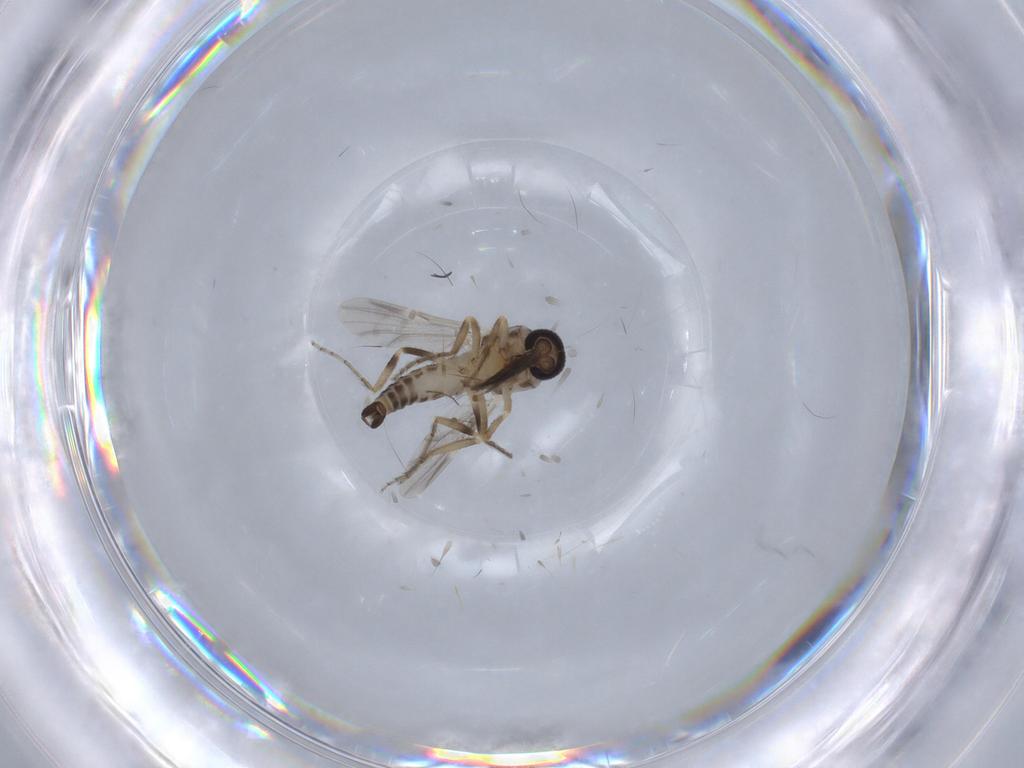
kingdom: Animalia
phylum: Arthropoda
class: Insecta
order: Diptera
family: Ceratopogonidae
